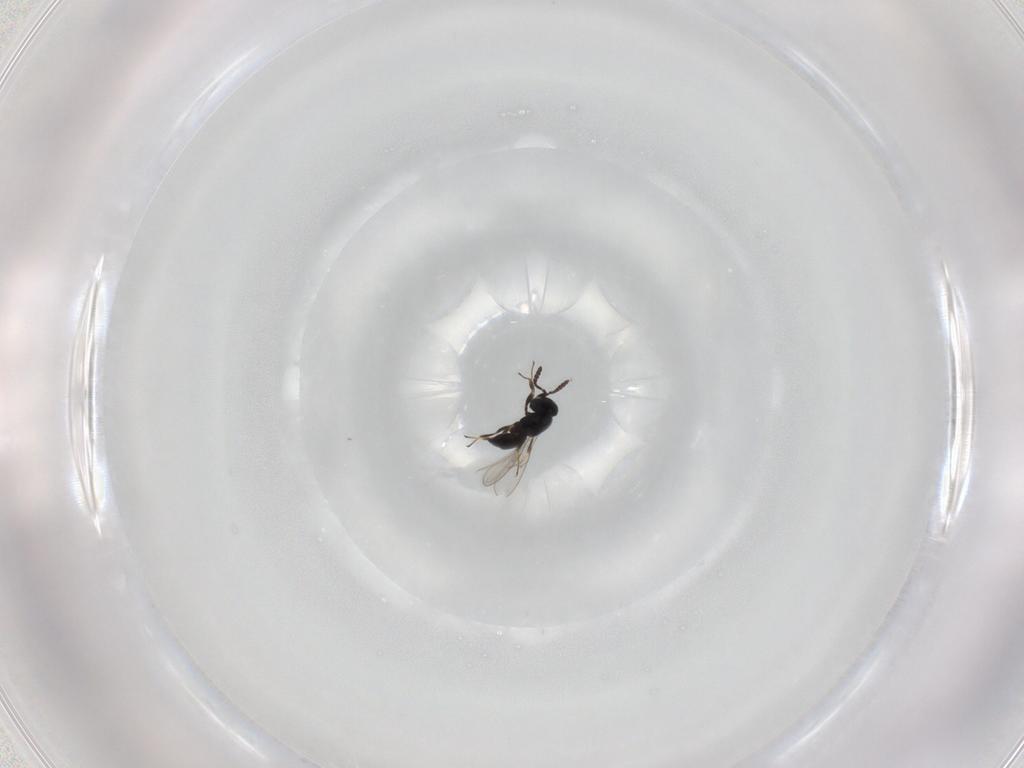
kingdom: Animalia
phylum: Arthropoda
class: Insecta
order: Hymenoptera
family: Scelionidae
